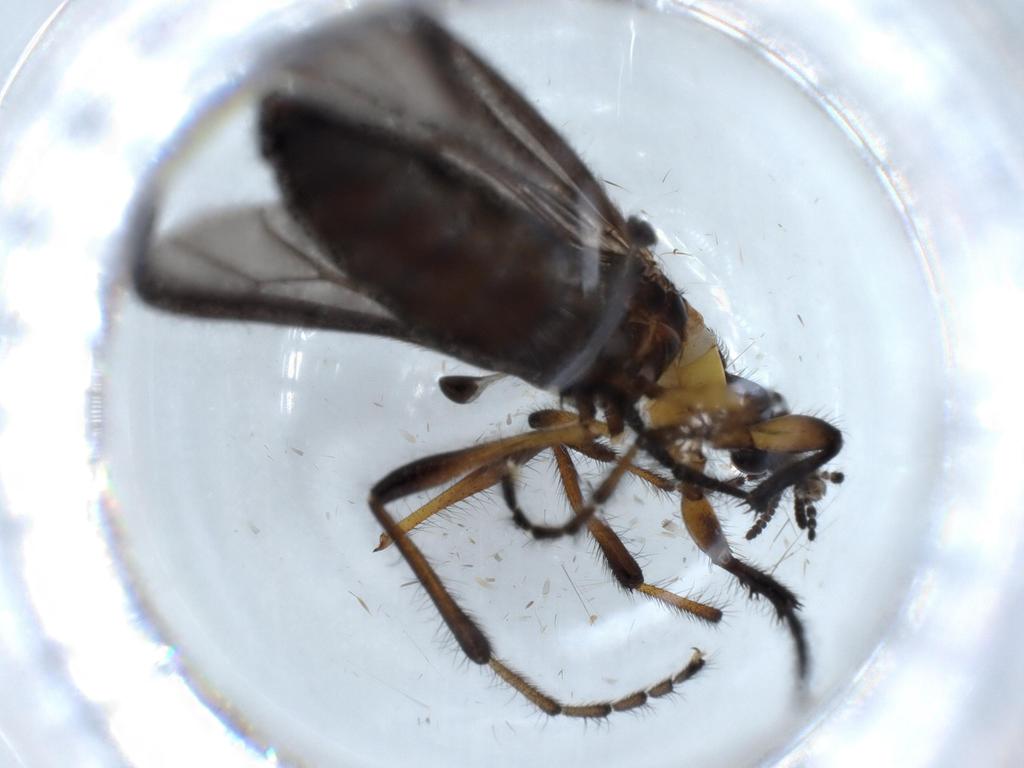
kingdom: Animalia
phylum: Arthropoda
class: Insecta
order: Diptera
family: Bibionidae
